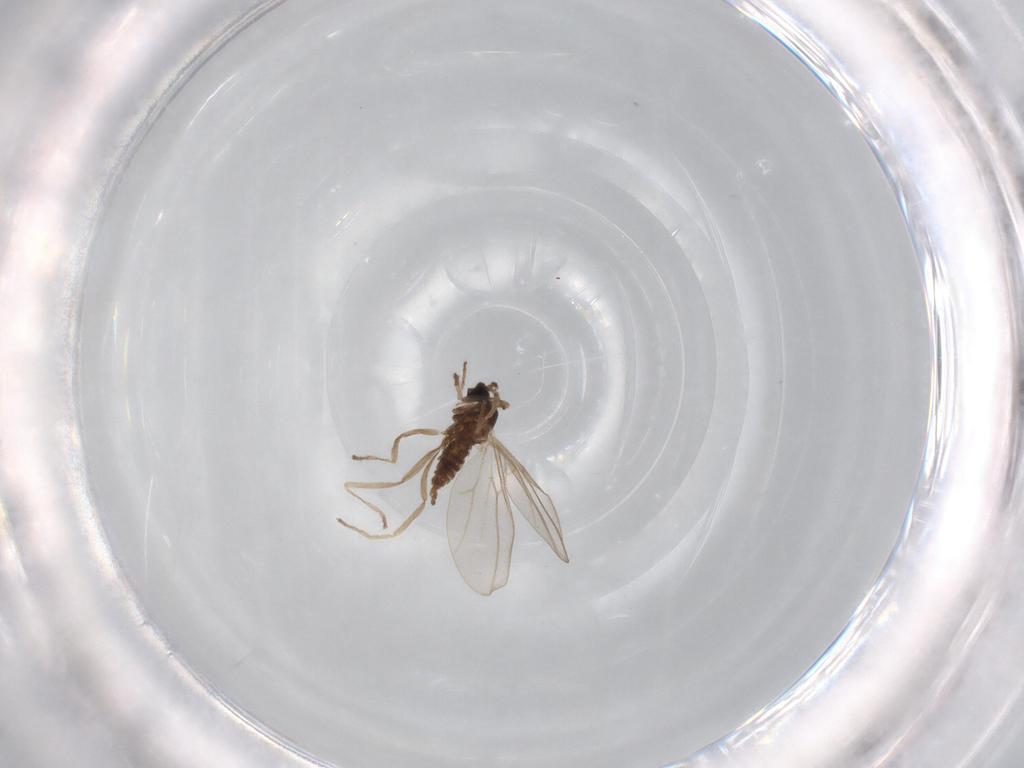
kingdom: Animalia
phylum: Arthropoda
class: Insecta
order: Diptera
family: Cecidomyiidae
